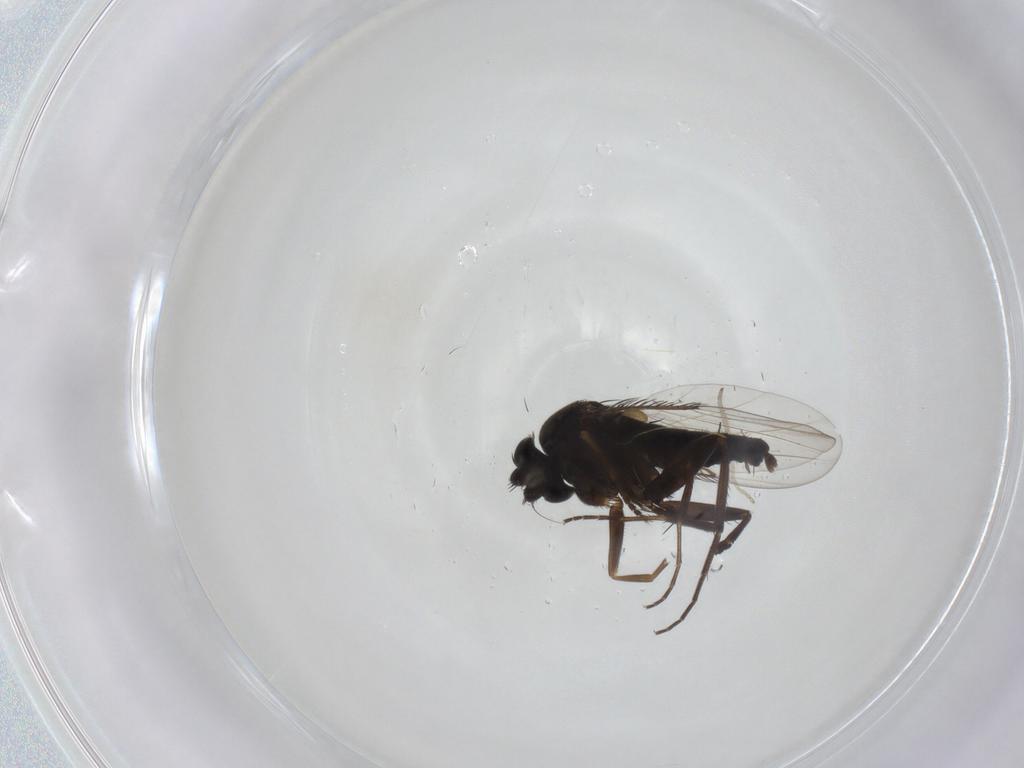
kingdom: Animalia
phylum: Arthropoda
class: Insecta
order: Diptera
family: Phoridae
